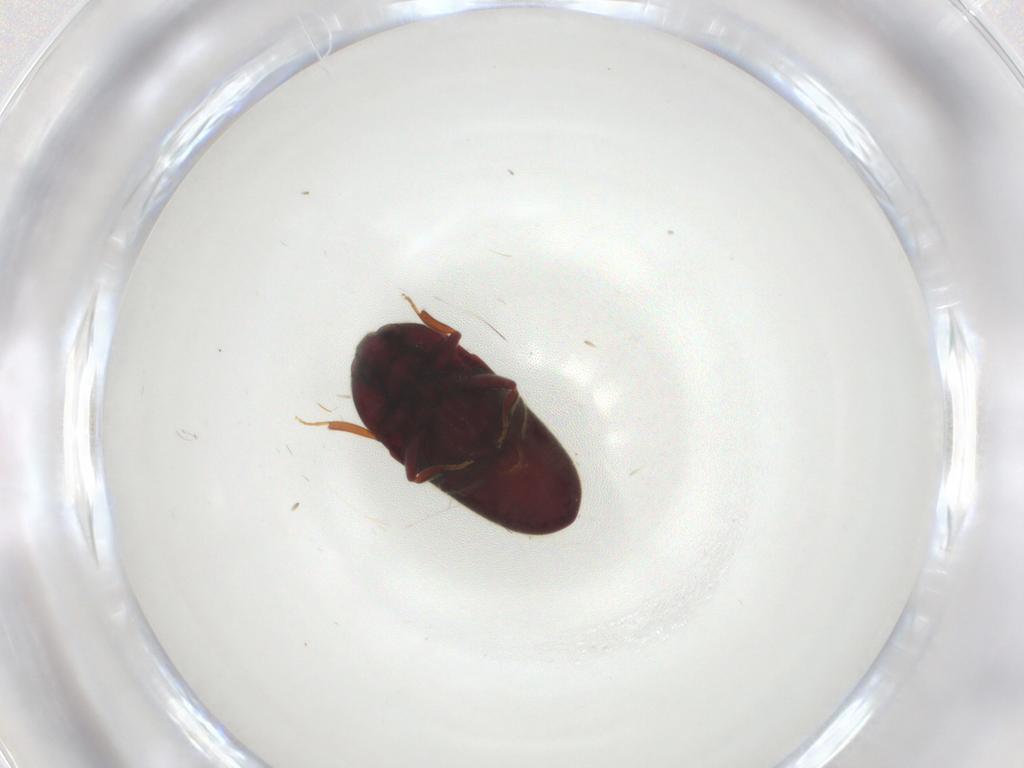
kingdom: Animalia
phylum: Arthropoda
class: Insecta
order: Coleoptera
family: Throscidae
